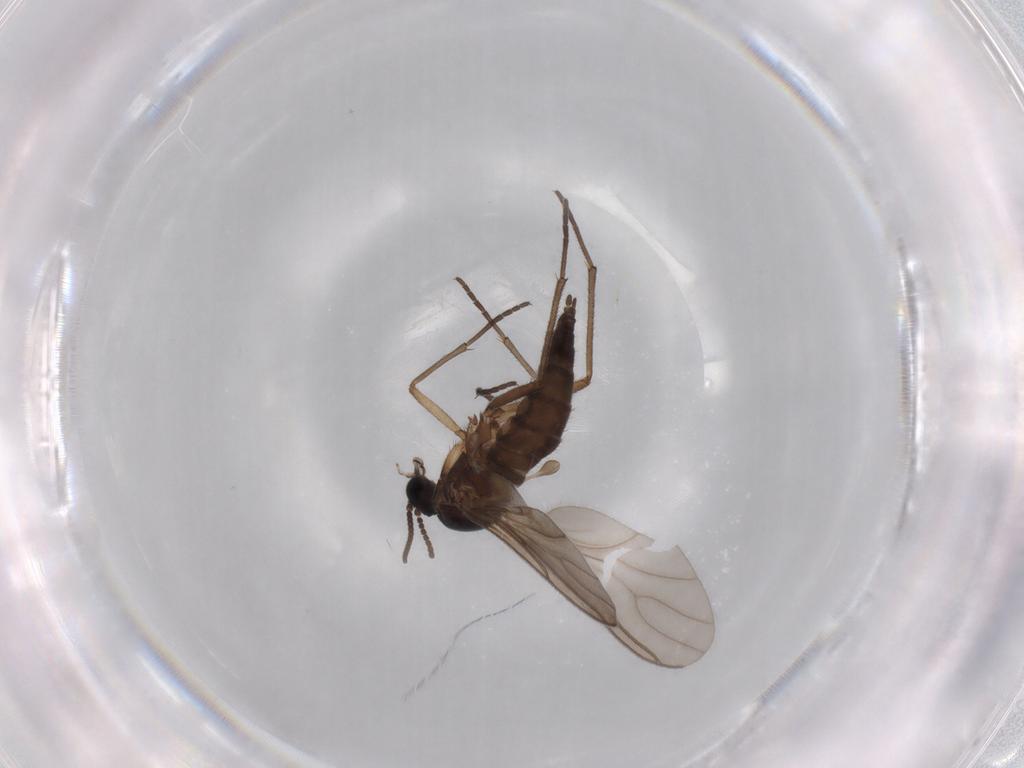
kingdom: Animalia
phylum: Arthropoda
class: Insecta
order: Diptera
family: Sciaridae
